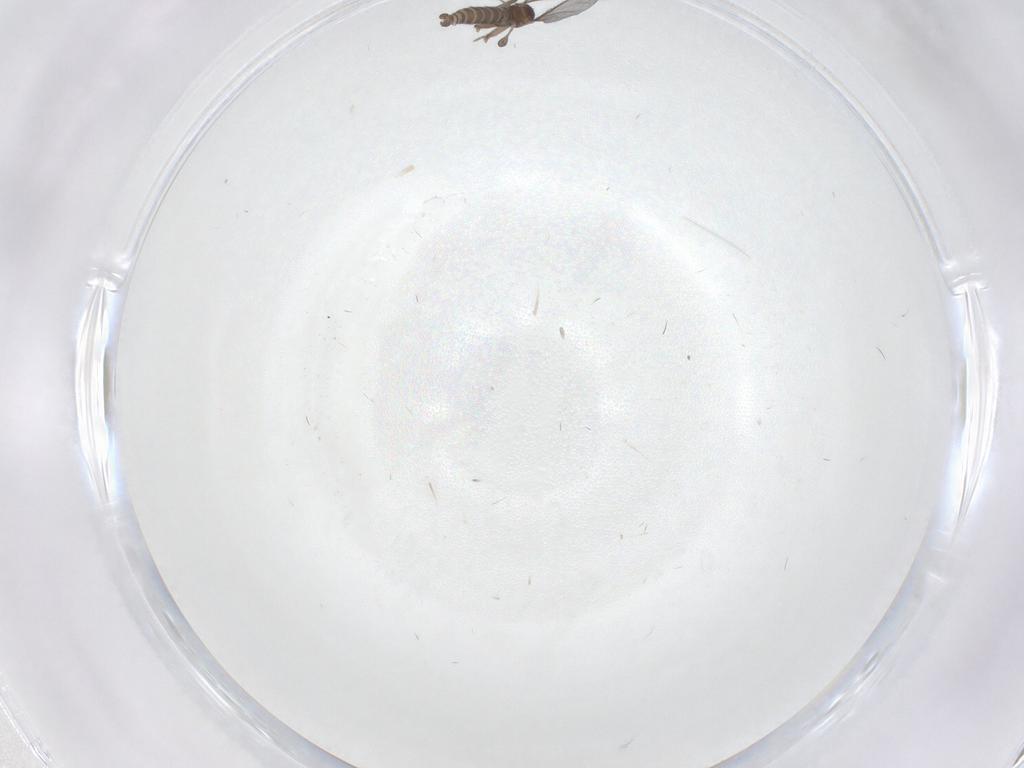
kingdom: Animalia
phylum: Arthropoda
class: Insecta
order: Diptera
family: Sciaridae
